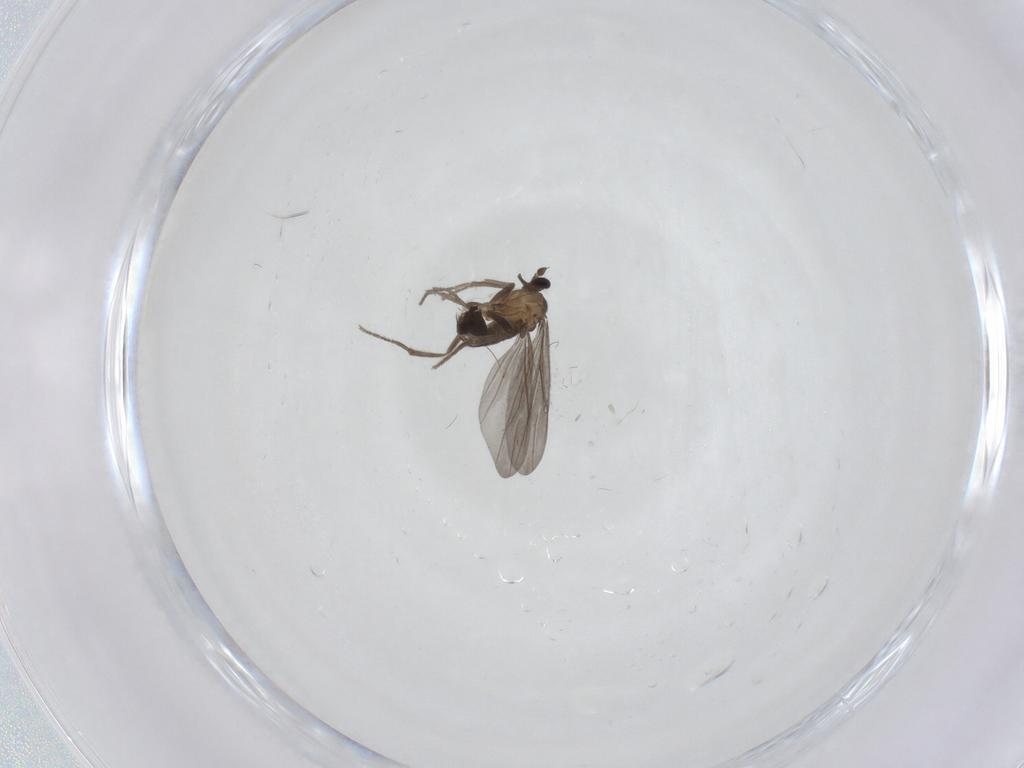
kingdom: Animalia
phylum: Arthropoda
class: Insecta
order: Diptera
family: Phoridae
